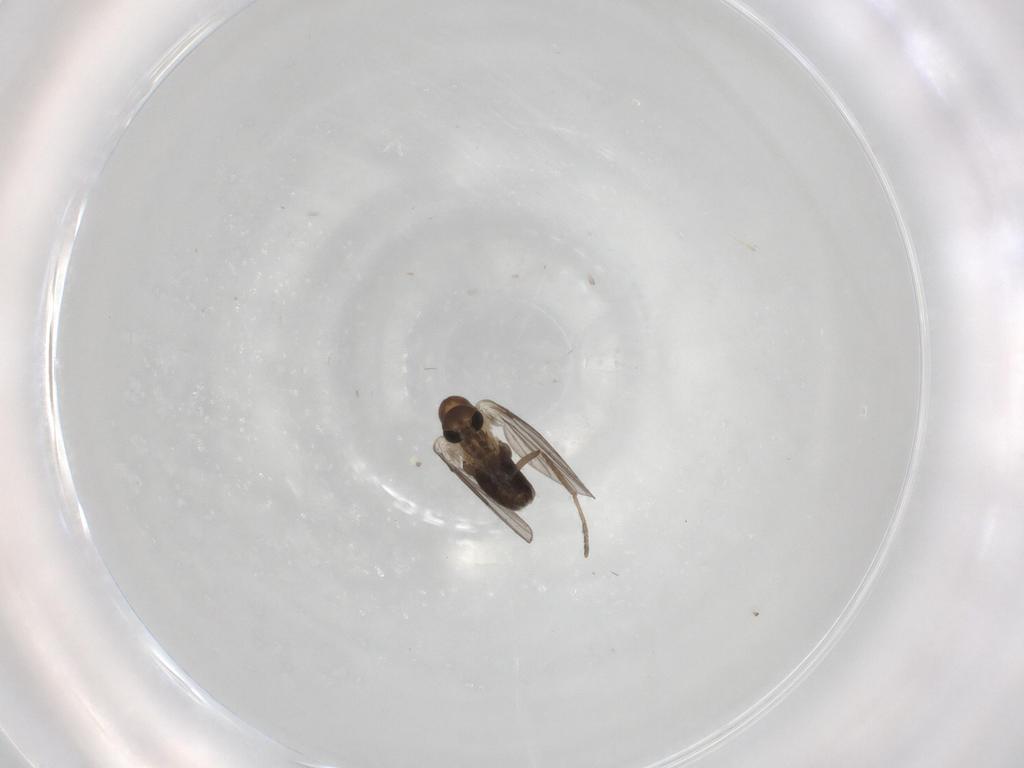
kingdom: Animalia
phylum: Arthropoda
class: Insecta
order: Diptera
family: Psychodidae
